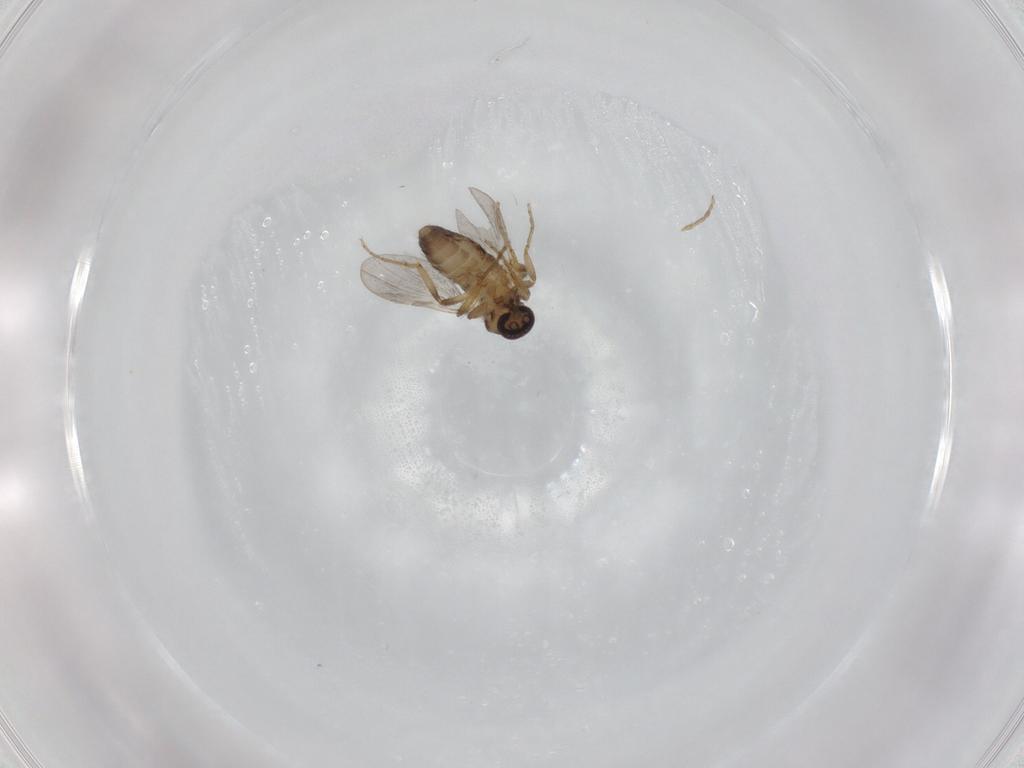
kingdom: Animalia
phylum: Arthropoda
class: Insecta
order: Diptera
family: Ceratopogonidae
